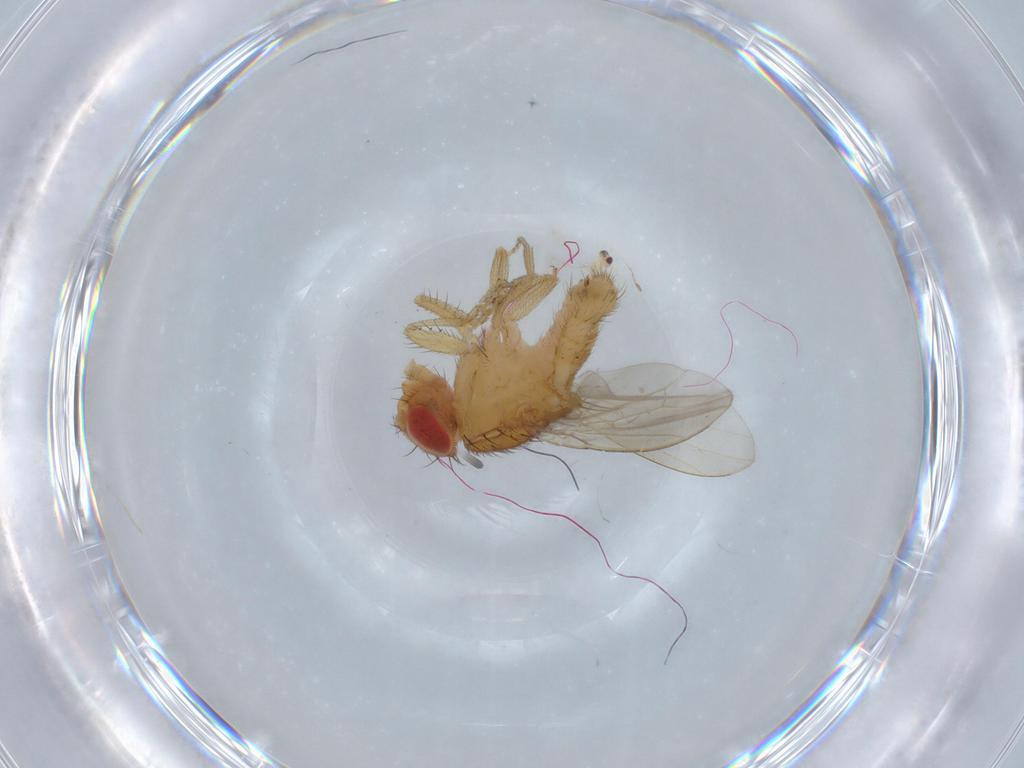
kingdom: Animalia
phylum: Arthropoda
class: Insecta
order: Diptera
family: Drosophilidae
